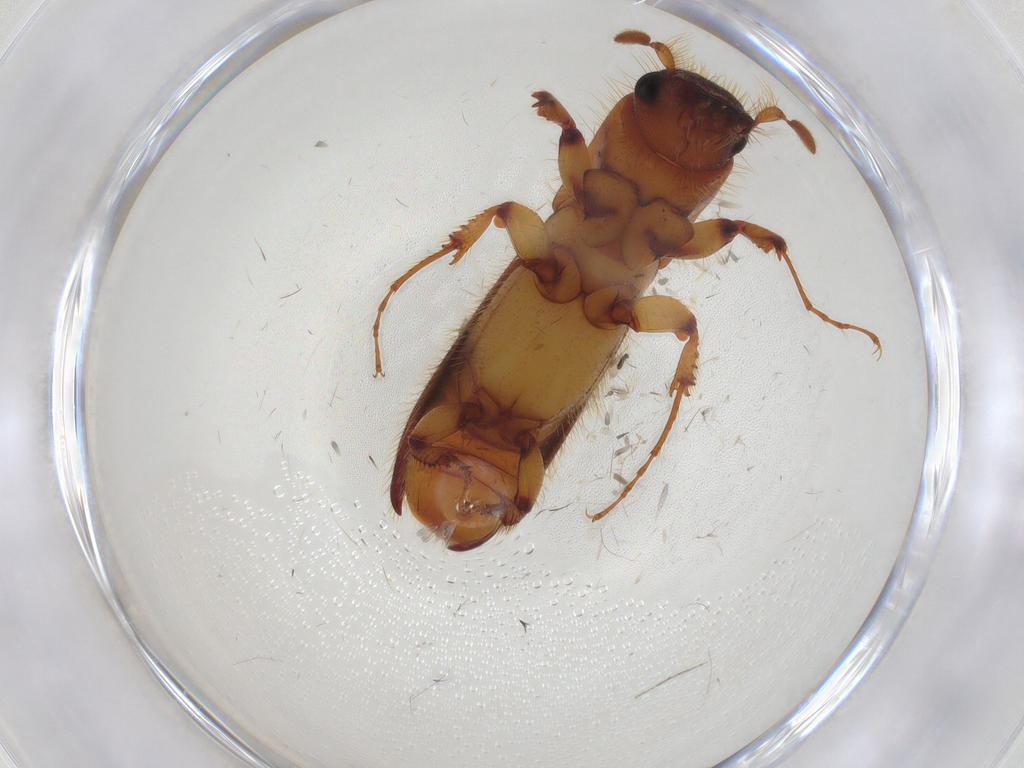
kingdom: Animalia
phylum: Arthropoda
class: Insecta
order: Coleoptera
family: Curculionidae
